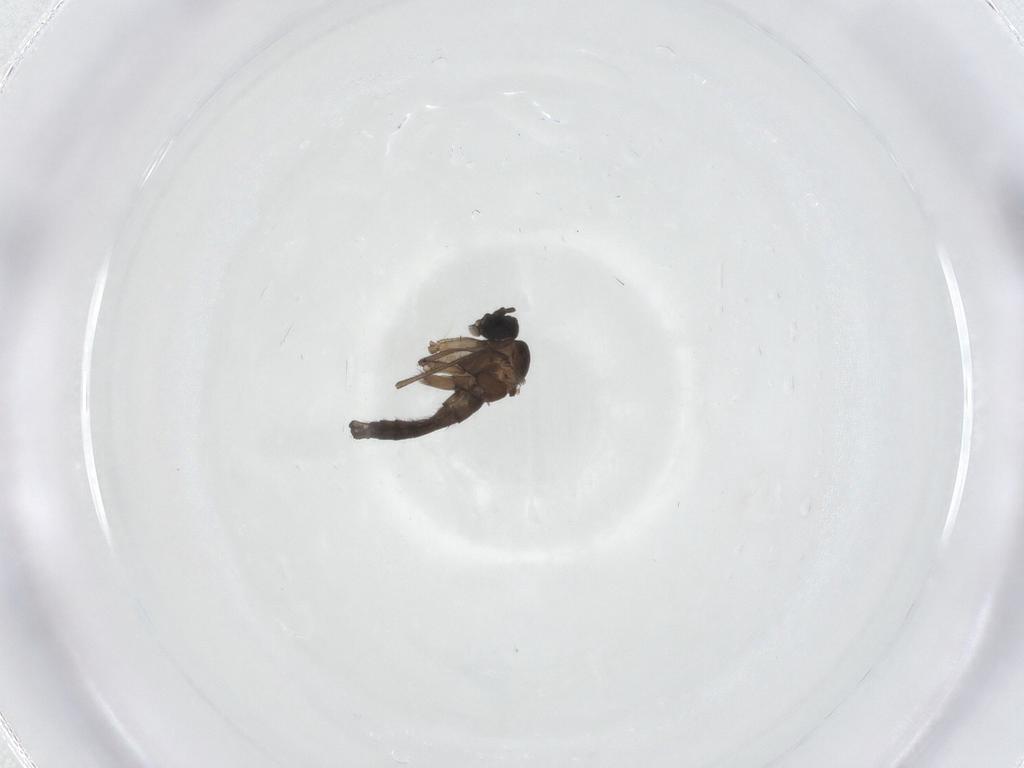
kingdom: Animalia
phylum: Arthropoda
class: Insecta
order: Diptera
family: Sciaridae
